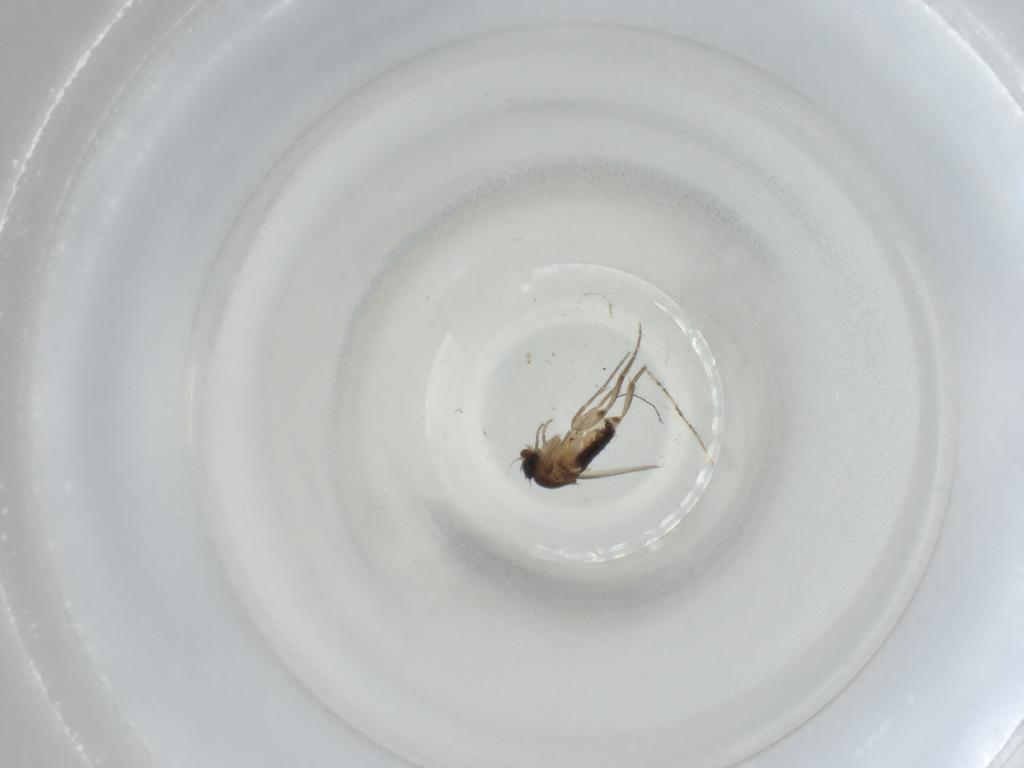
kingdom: Animalia
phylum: Arthropoda
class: Insecta
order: Diptera
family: Phoridae
